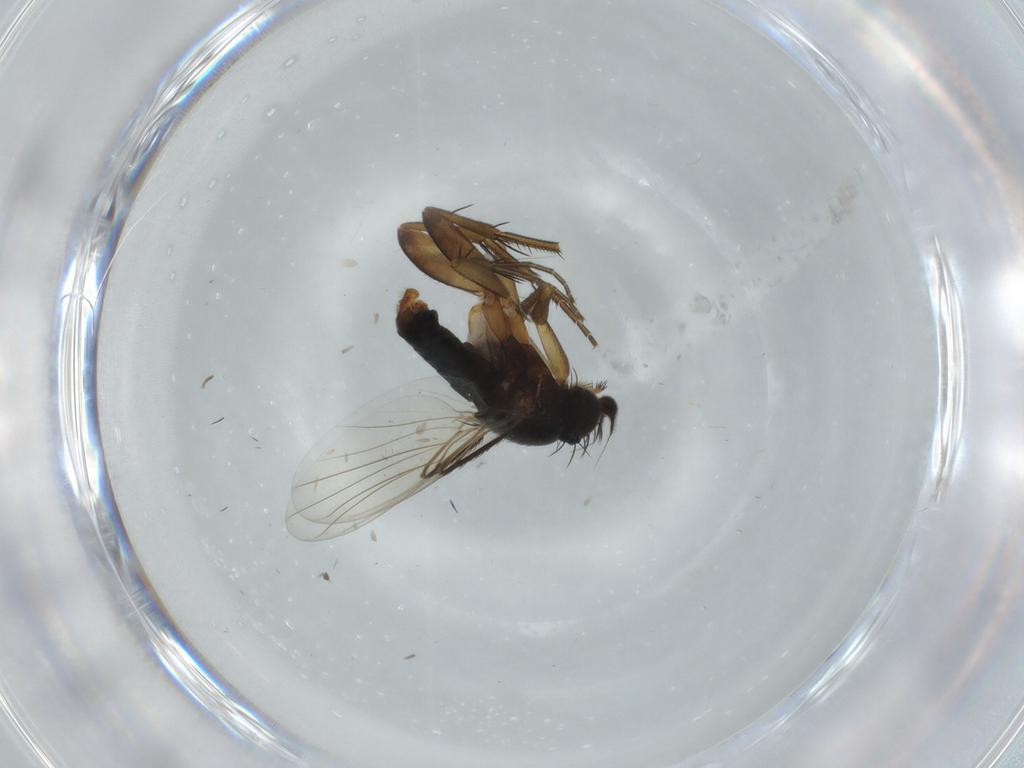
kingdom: Animalia
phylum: Arthropoda
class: Insecta
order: Diptera
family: Phoridae
